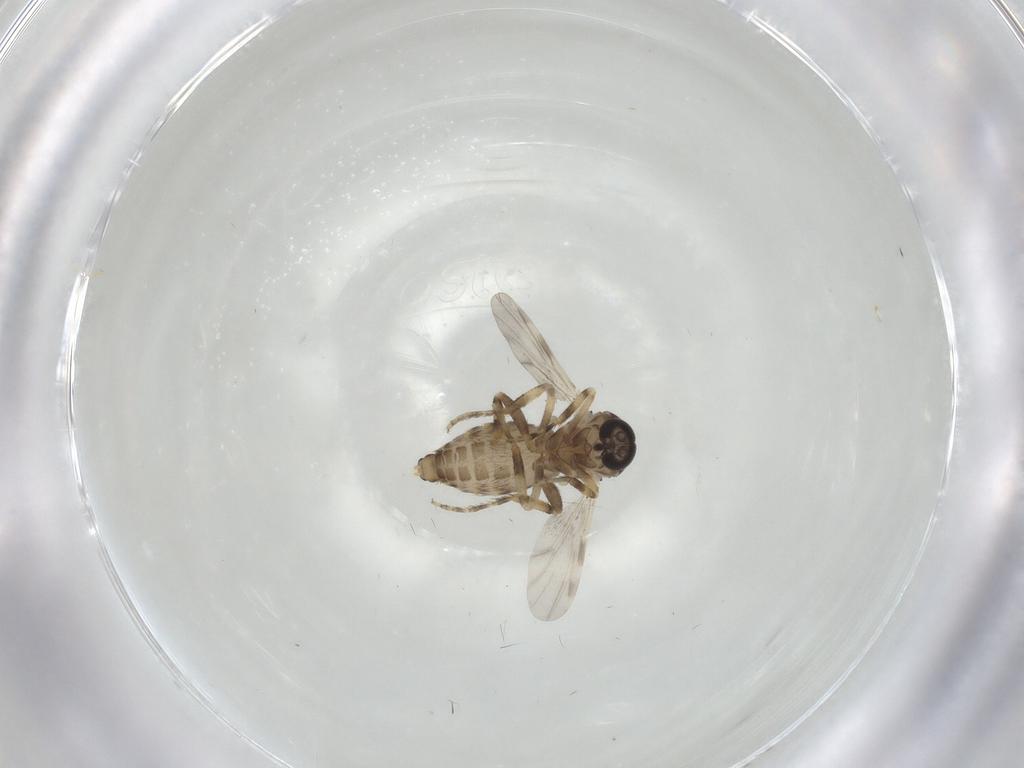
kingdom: Animalia
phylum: Arthropoda
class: Insecta
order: Diptera
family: Ceratopogonidae
